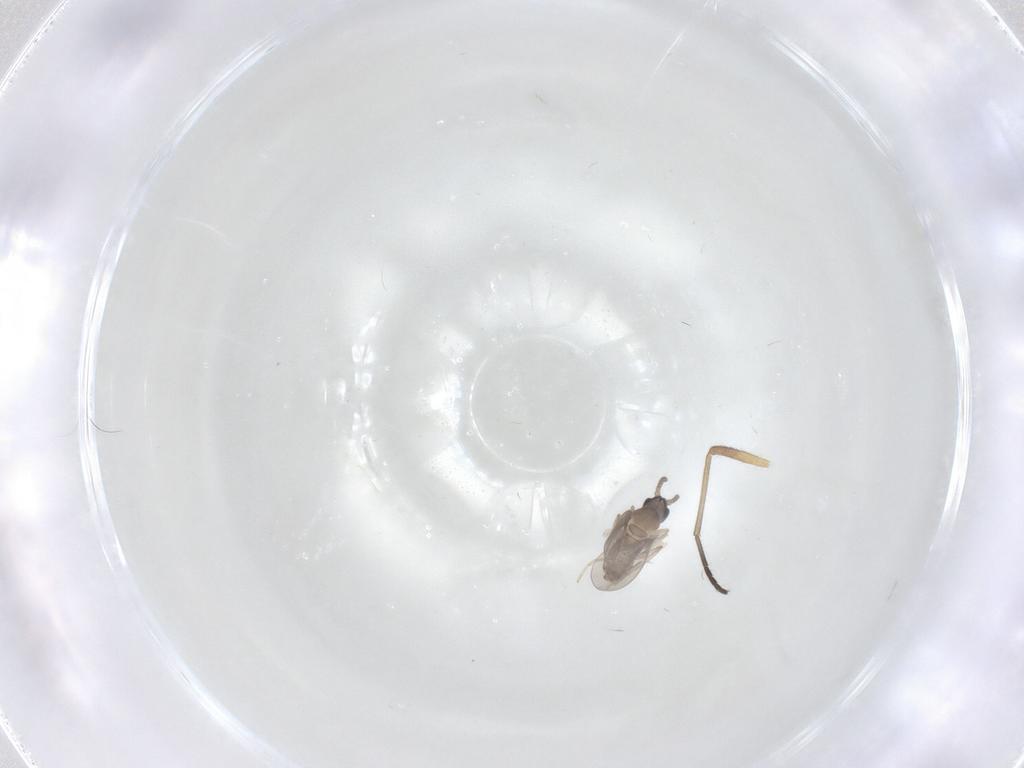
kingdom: Animalia
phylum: Arthropoda
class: Insecta
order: Diptera
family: Cecidomyiidae
